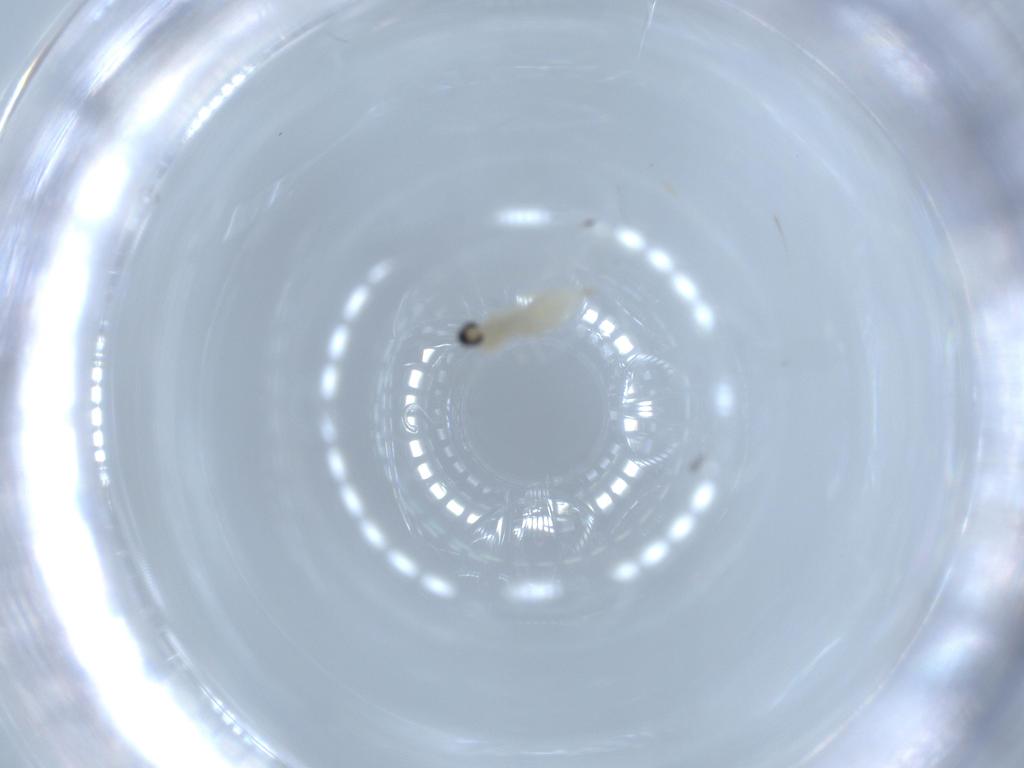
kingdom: Animalia
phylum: Arthropoda
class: Insecta
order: Diptera
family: Cecidomyiidae
